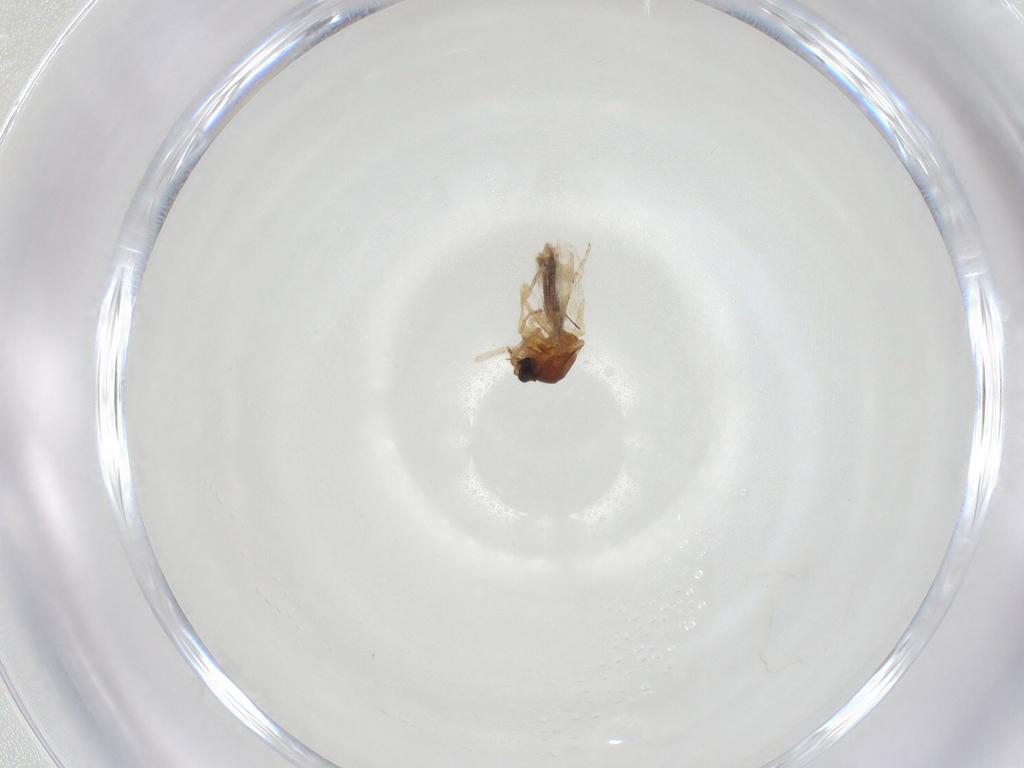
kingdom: Animalia
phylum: Arthropoda
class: Insecta
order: Diptera
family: Ceratopogonidae
